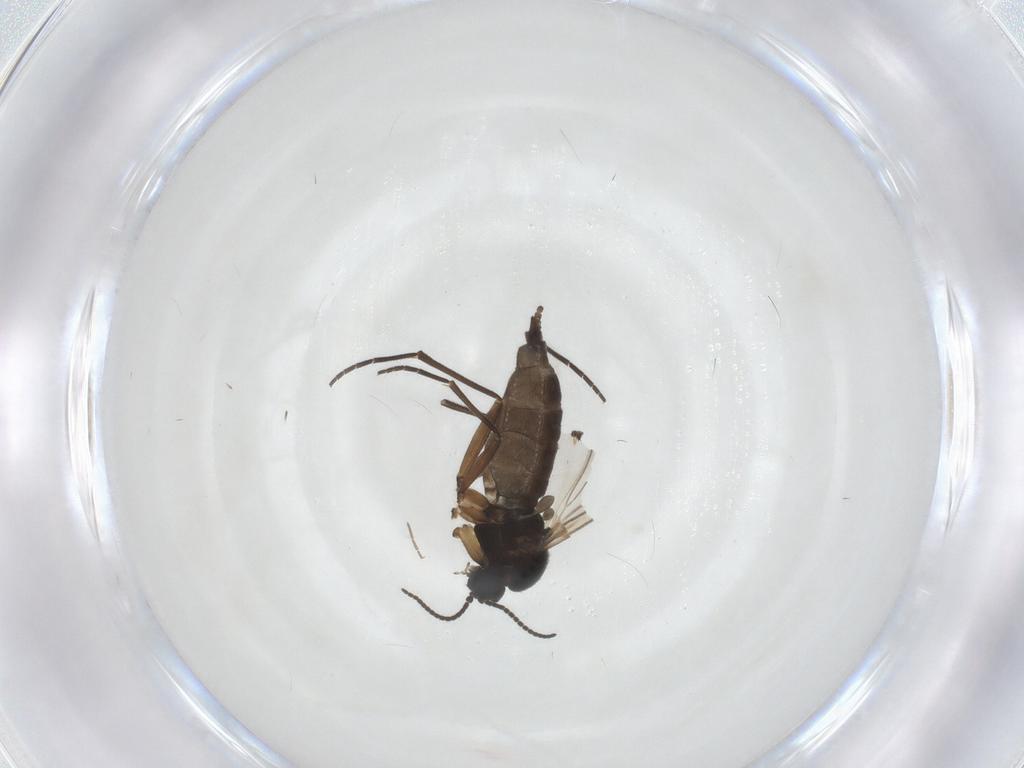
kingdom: Animalia
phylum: Arthropoda
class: Insecta
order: Diptera
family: Sciaridae
